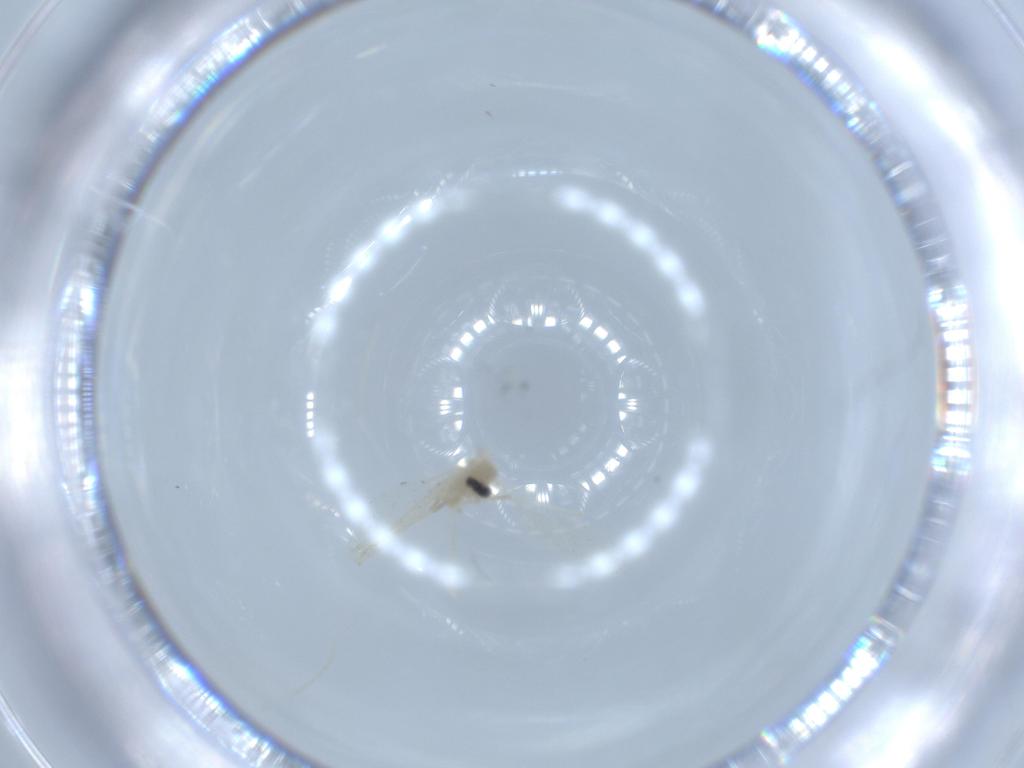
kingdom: Animalia
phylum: Arthropoda
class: Insecta
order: Diptera
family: Cecidomyiidae
